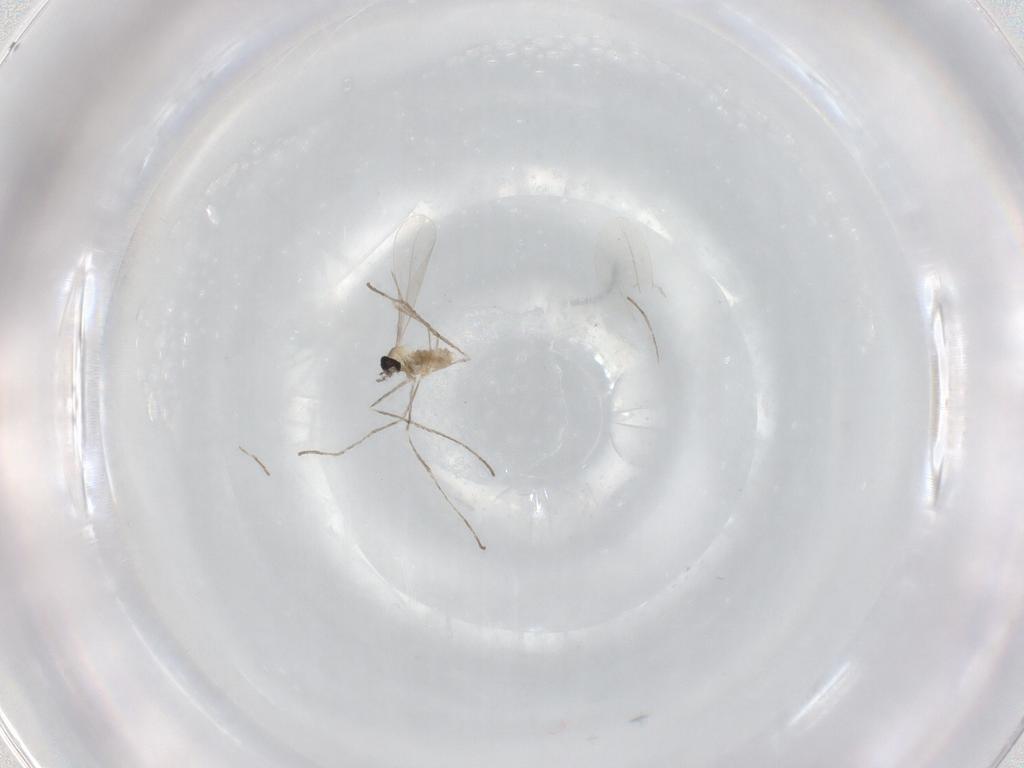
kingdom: Animalia
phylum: Arthropoda
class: Insecta
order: Diptera
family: Cecidomyiidae
